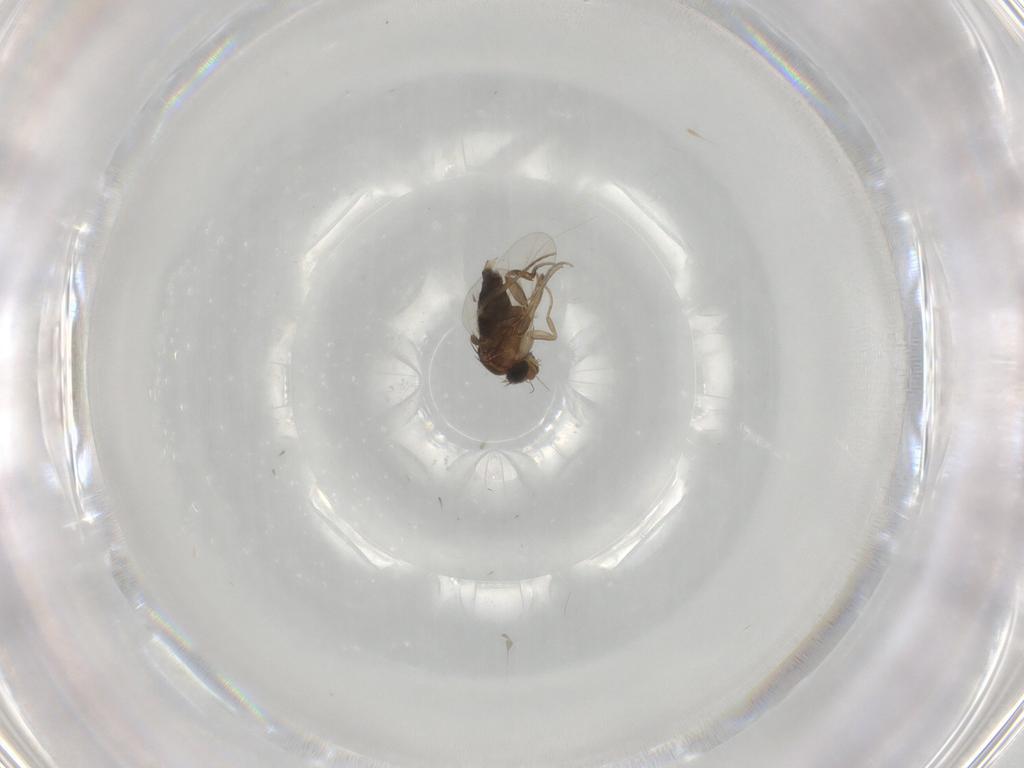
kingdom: Animalia
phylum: Arthropoda
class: Insecta
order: Diptera
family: Phoridae
